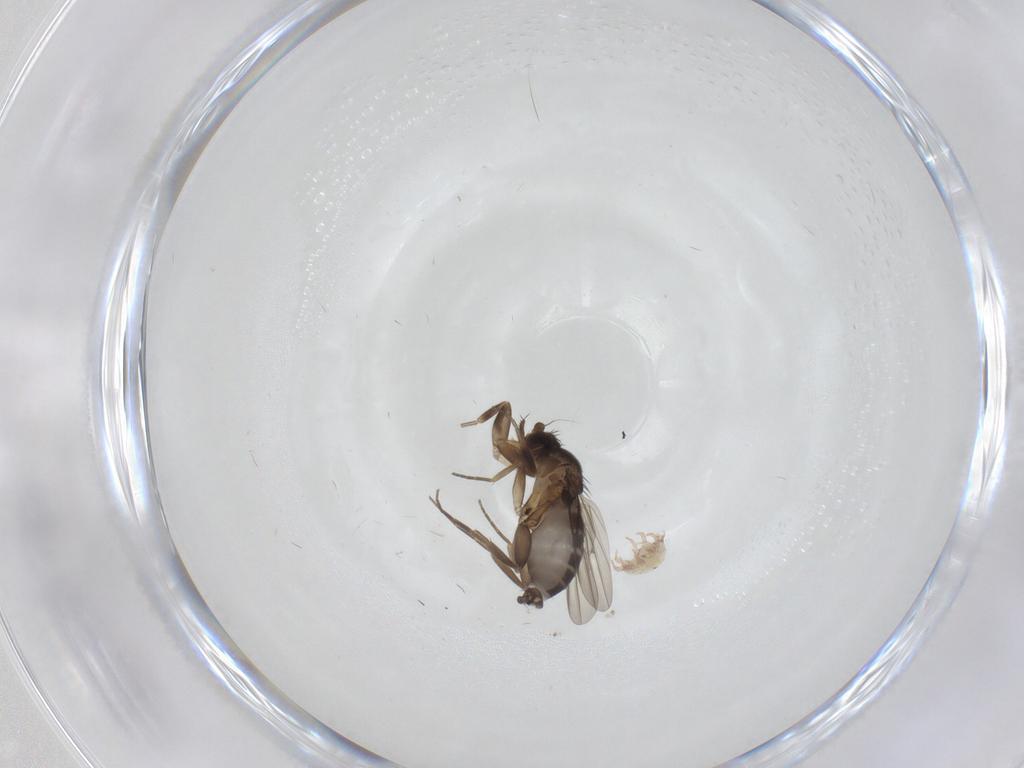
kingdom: Animalia
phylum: Arthropoda
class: Insecta
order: Diptera
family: Phoridae
